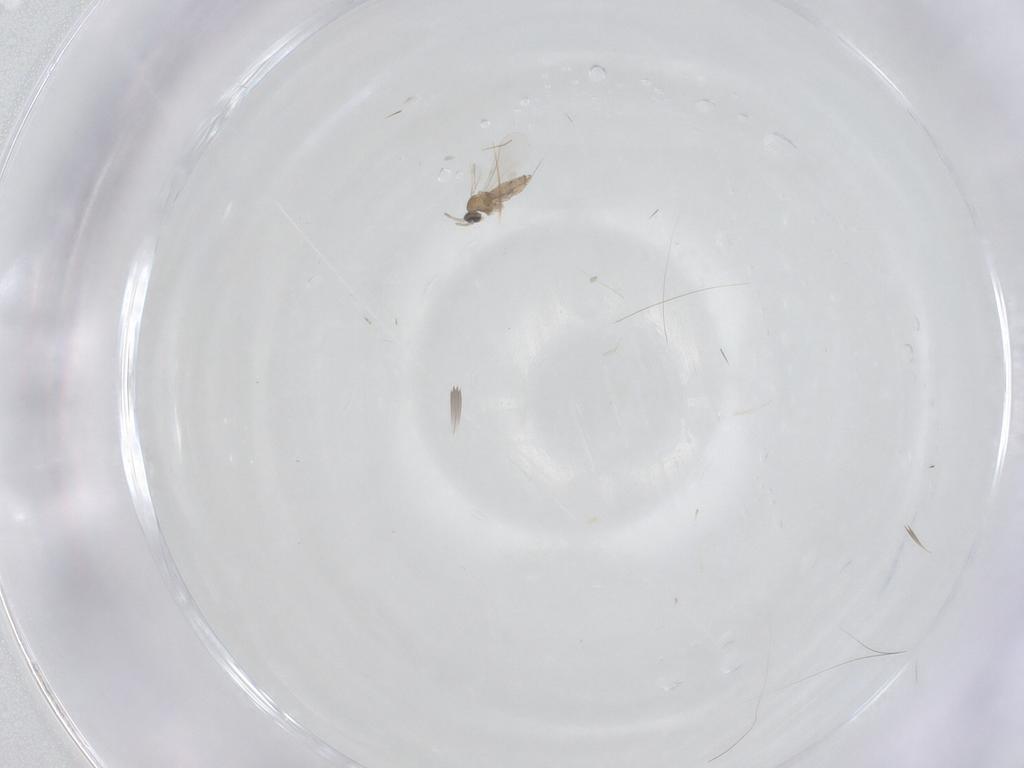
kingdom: Animalia
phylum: Arthropoda
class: Insecta
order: Diptera
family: Cecidomyiidae
